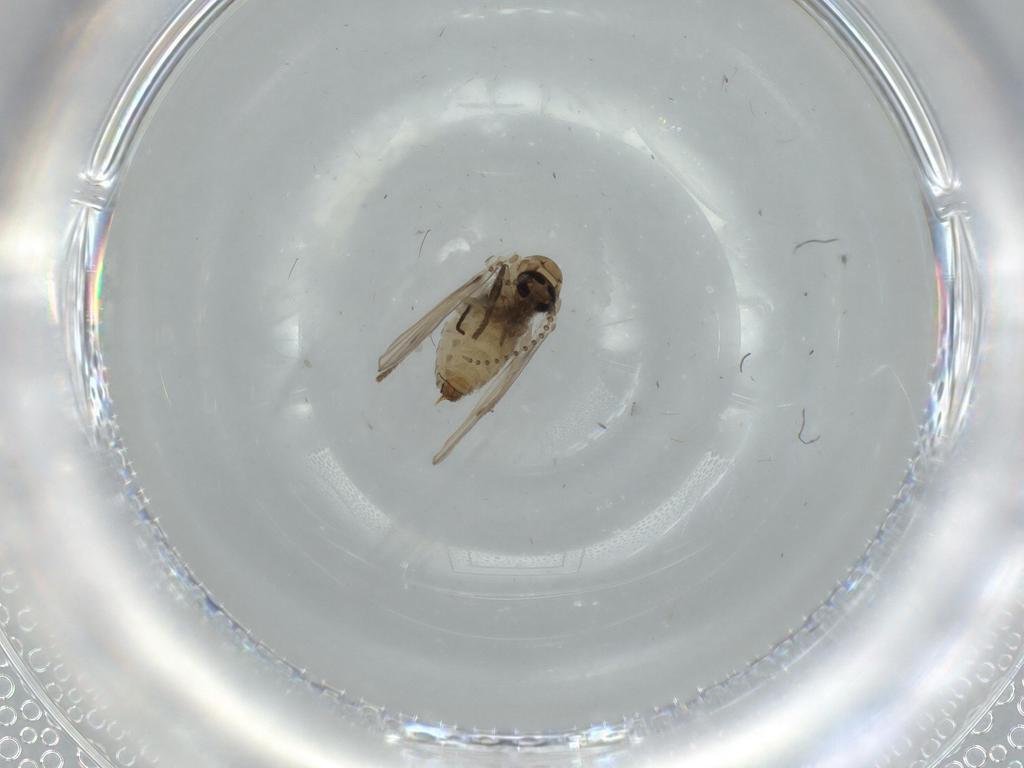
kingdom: Animalia
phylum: Arthropoda
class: Insecta
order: Diptera
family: Psychodidae
